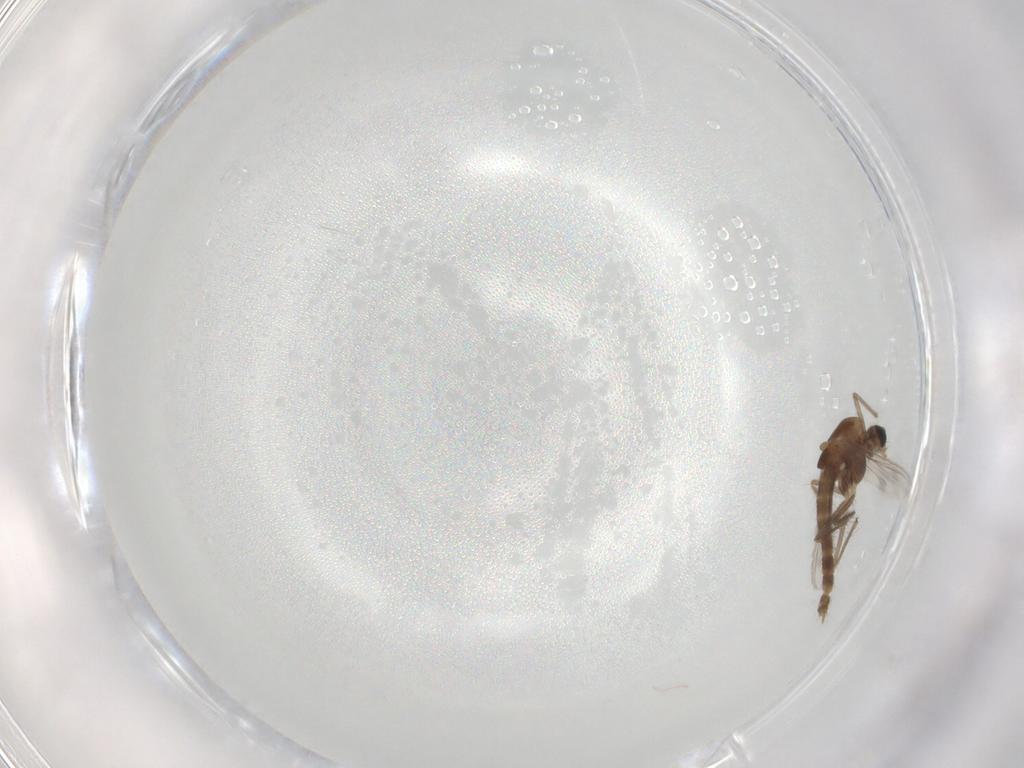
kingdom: Animalia
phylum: Arthropoda
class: Insecta
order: Diptera
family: Chironomidae
